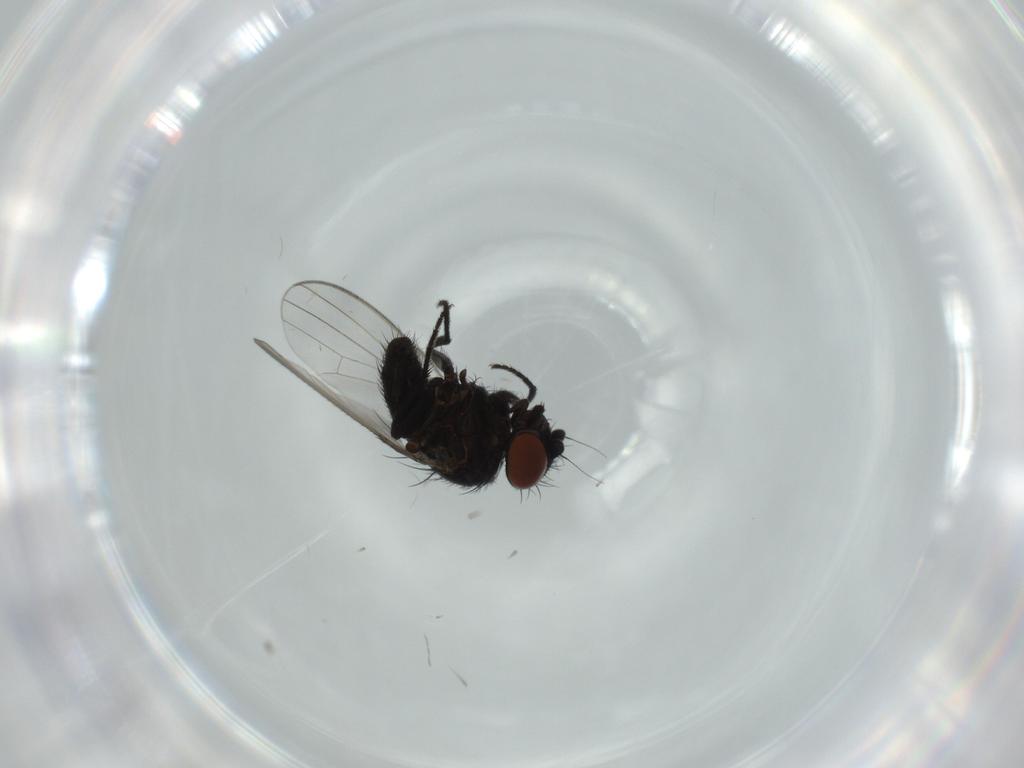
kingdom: Animalia
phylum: Arthropoda
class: Insecta
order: Diptera
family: Milichiidae
